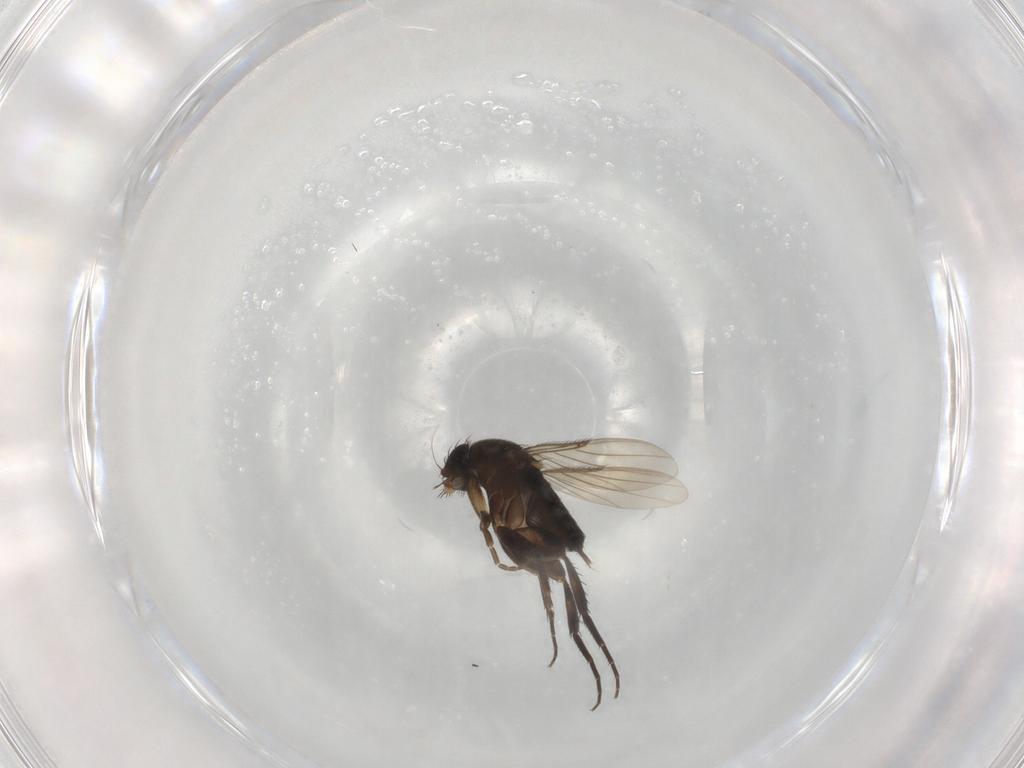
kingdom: Animalia
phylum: Arthropoda
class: Insecta
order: Diptera
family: Phoridae
